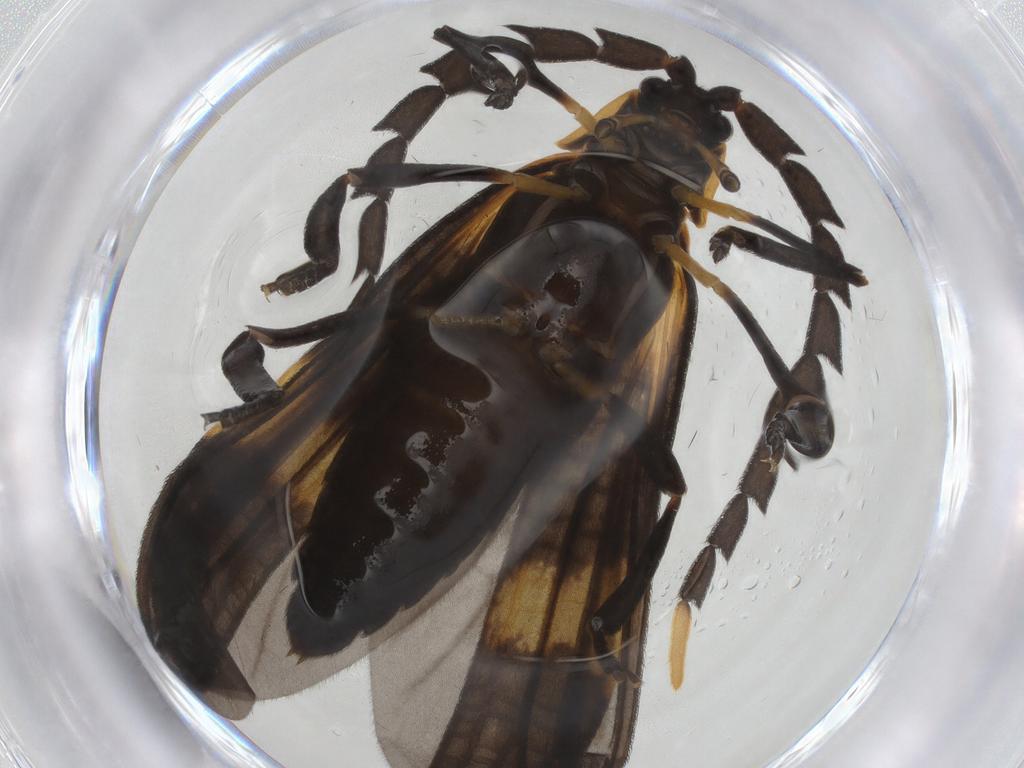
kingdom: Animalia
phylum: Arthropoda
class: Insecta
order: Coleoptera
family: Lycidae
